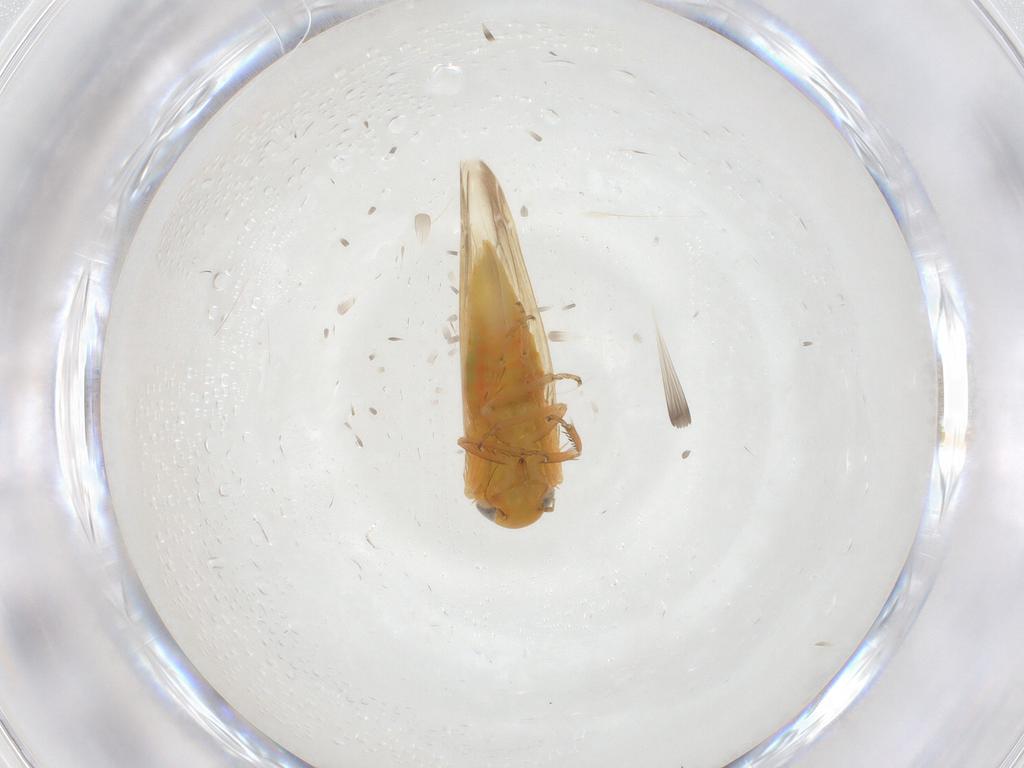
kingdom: Animalia
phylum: Arthropoda
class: Insecta
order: Hemiptera
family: Cicadellidae
